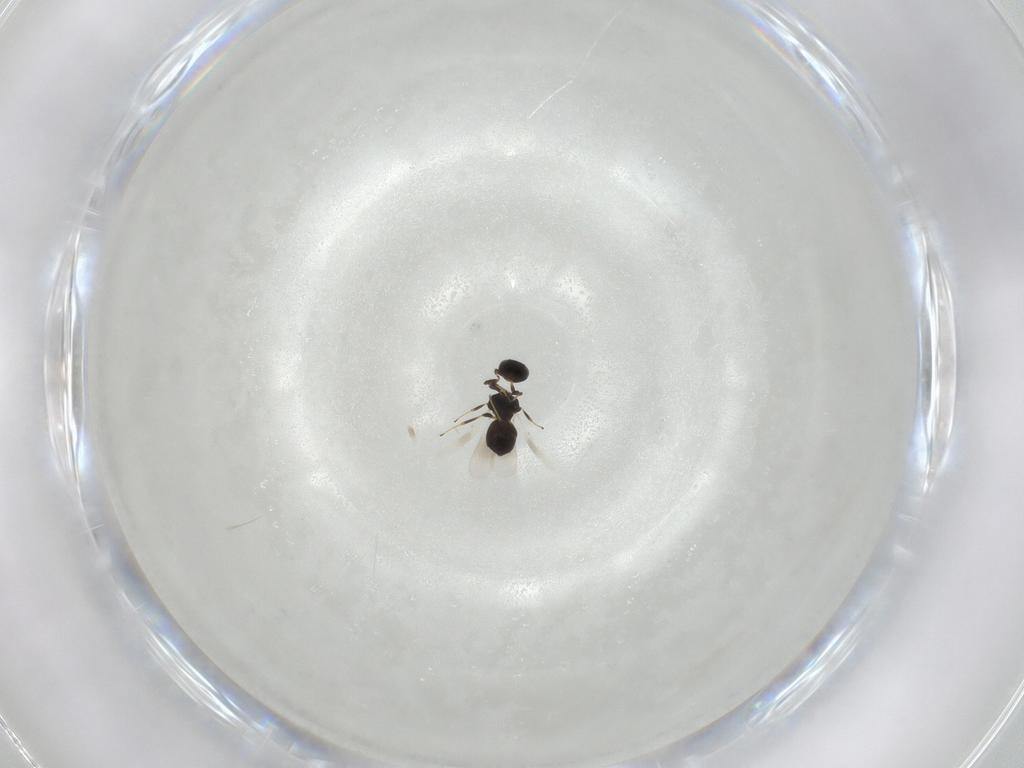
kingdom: Animalia
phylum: Arthropoda
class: Insecta
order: Hymenoptera
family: Platygastridae
